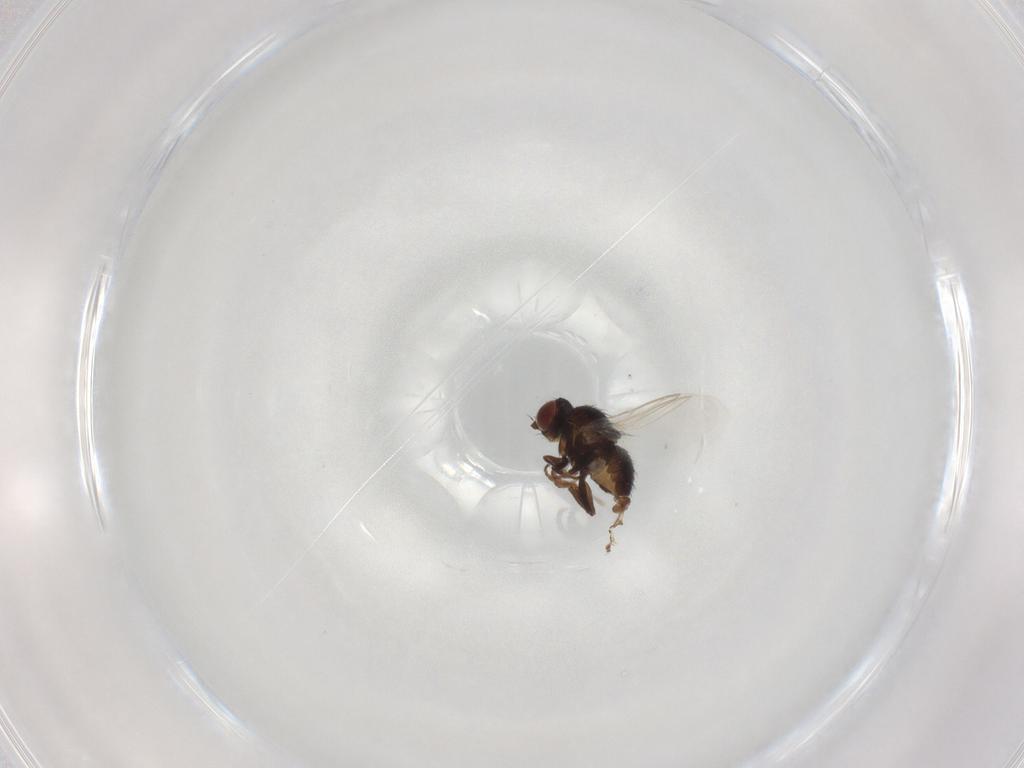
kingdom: Animalia
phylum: Arthropoda
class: Insecta
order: Diptera
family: Agromyzidae
